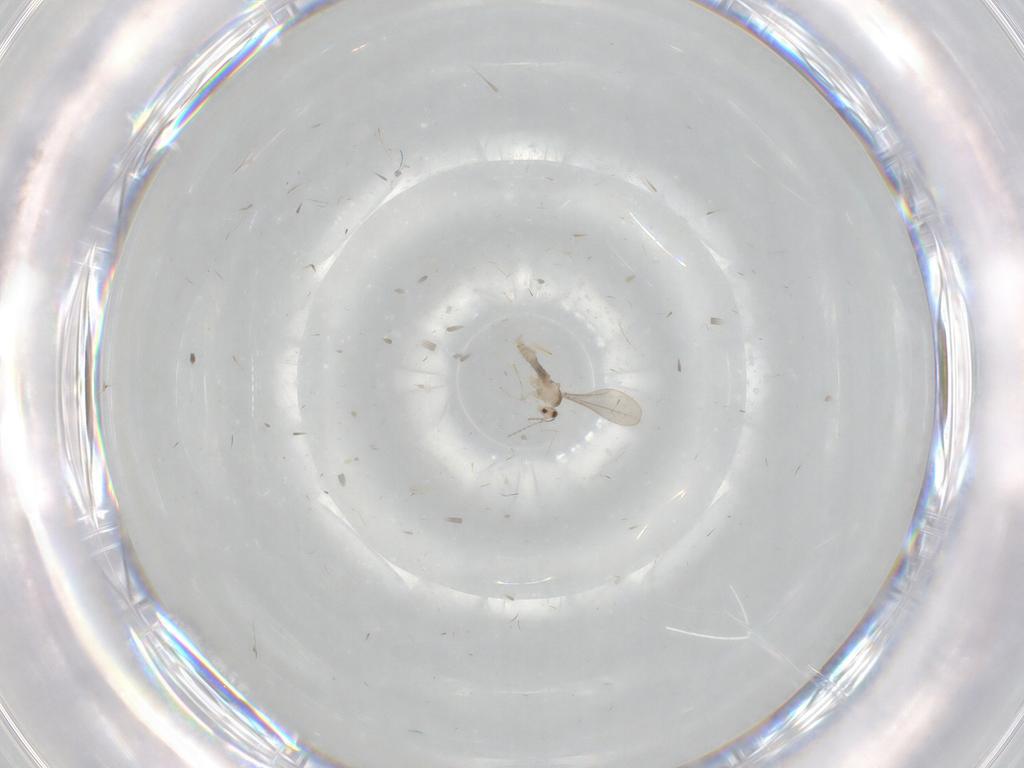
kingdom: Animalia
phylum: Arthropoda
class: Insecta
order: Diptera
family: Cecidomyiidae
